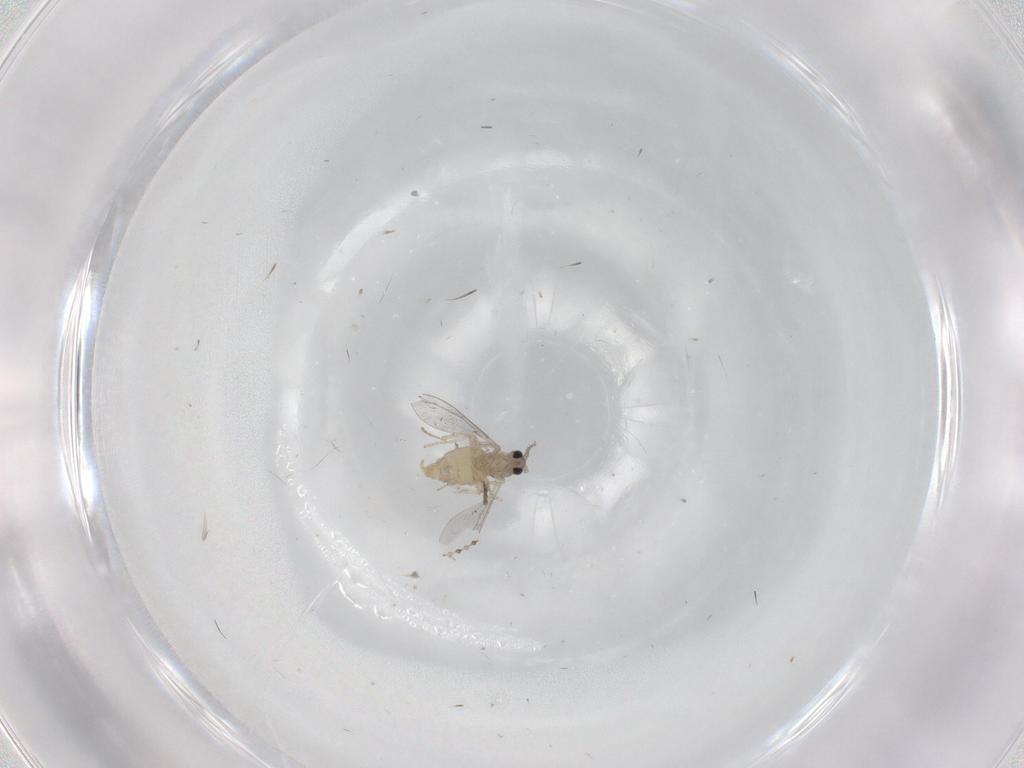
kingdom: Animalia
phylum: Arthropoda
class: Insecta
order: Diptera
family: Cecidomyiidae
